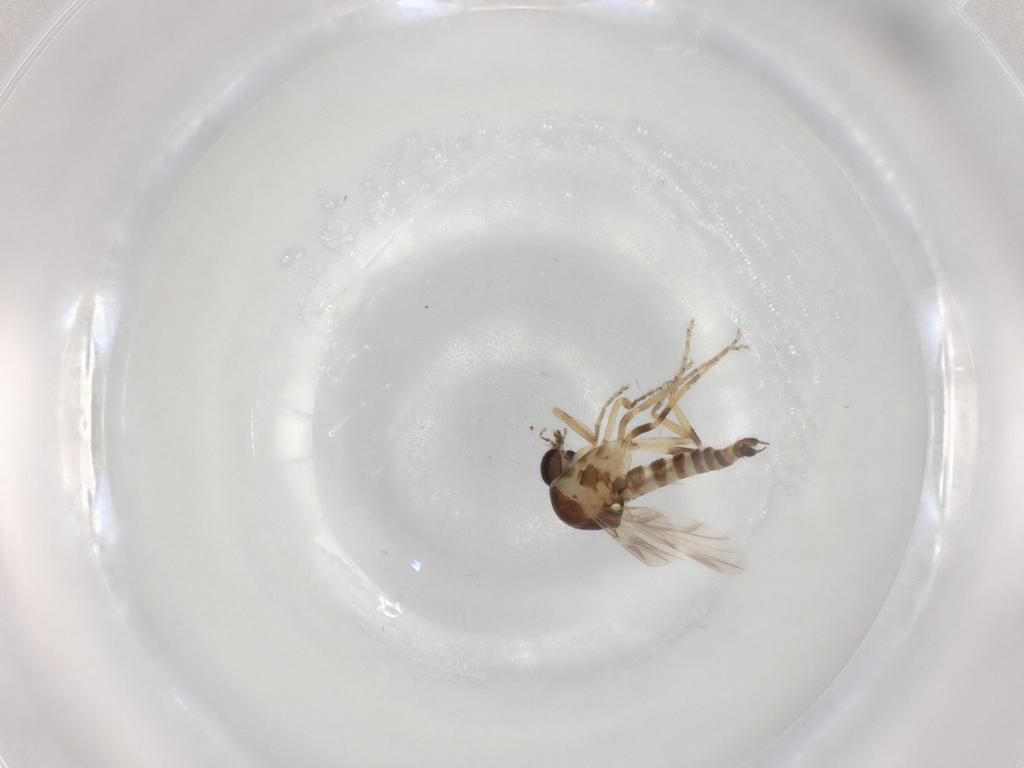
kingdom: Animalia
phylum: Arthropoda
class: Insecta
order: Diptera
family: Ceratopogonidae
